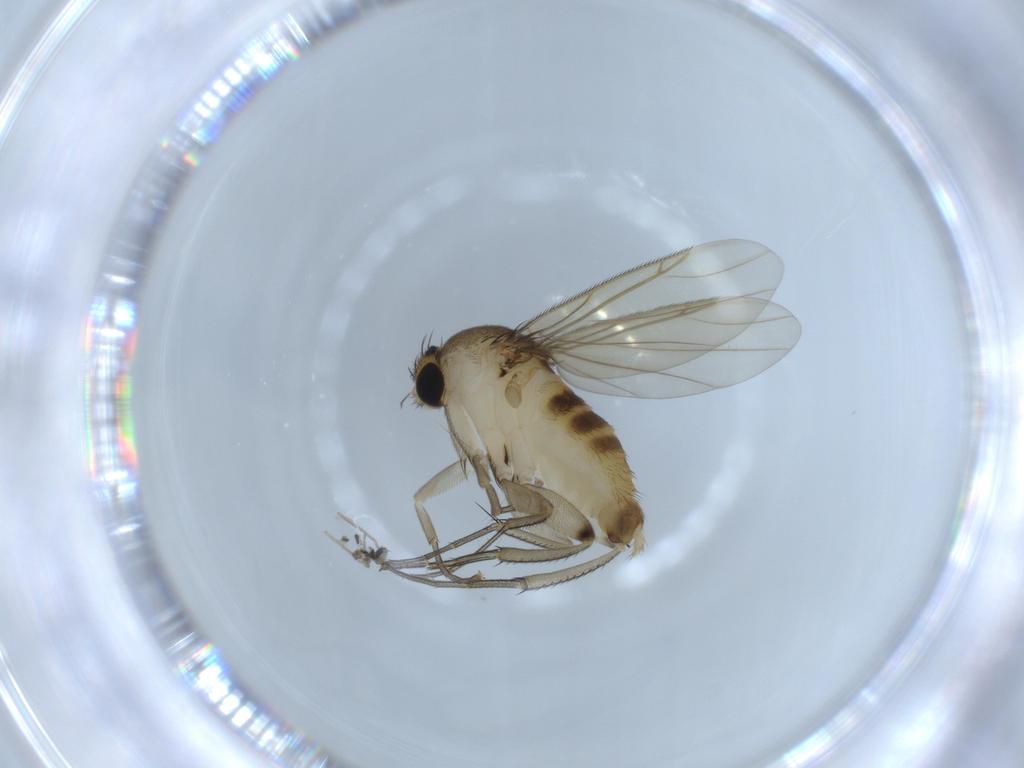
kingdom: Animalia
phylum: Arthropoda
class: Insecta
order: Diptera
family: Phoridae
